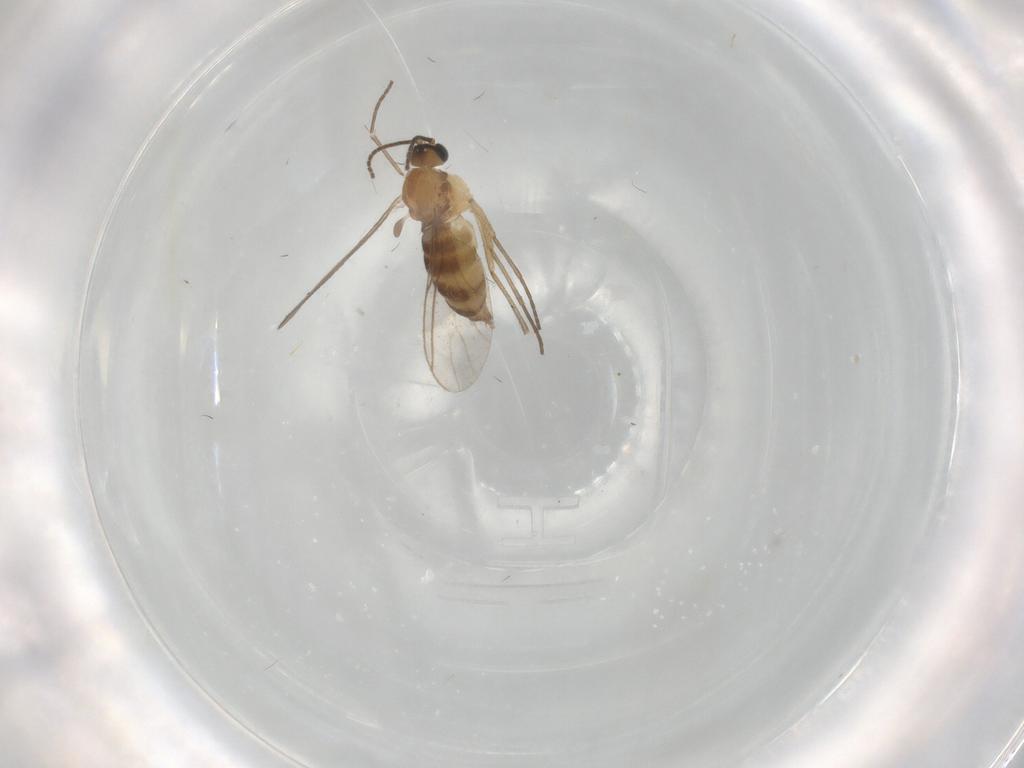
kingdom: Animalia
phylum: Arthropoda
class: Insecta
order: Diptera
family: Sciaridae
